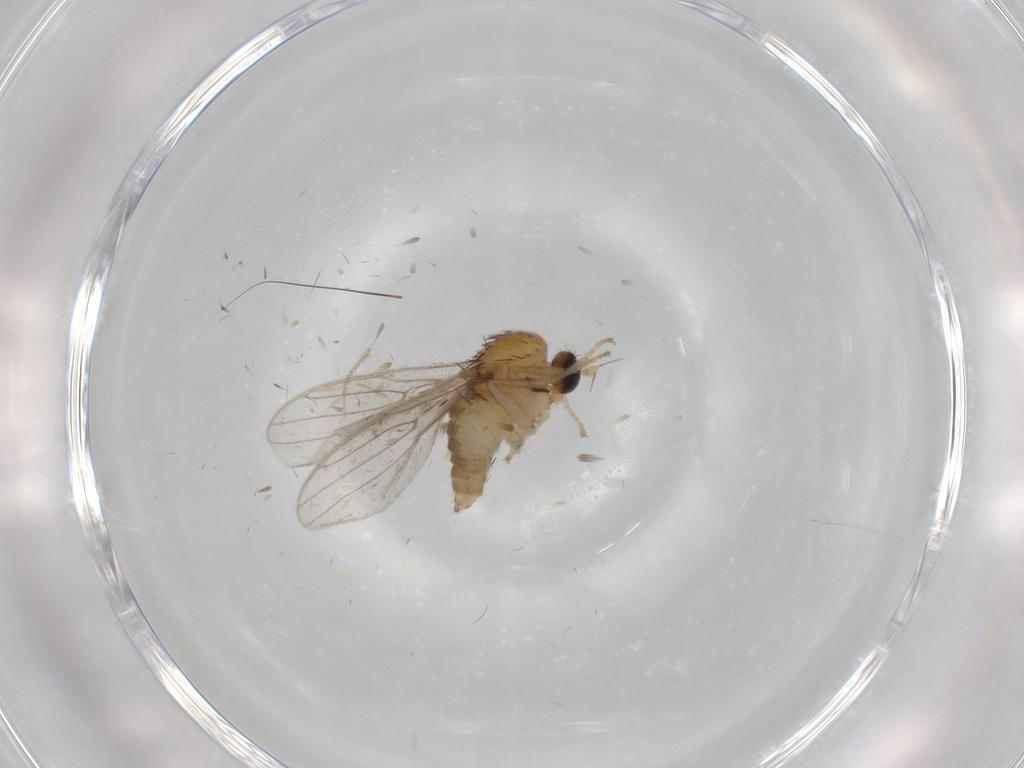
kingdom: Animalia
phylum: Arthropoda
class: Insecta
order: Diptera
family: Hybotidae
